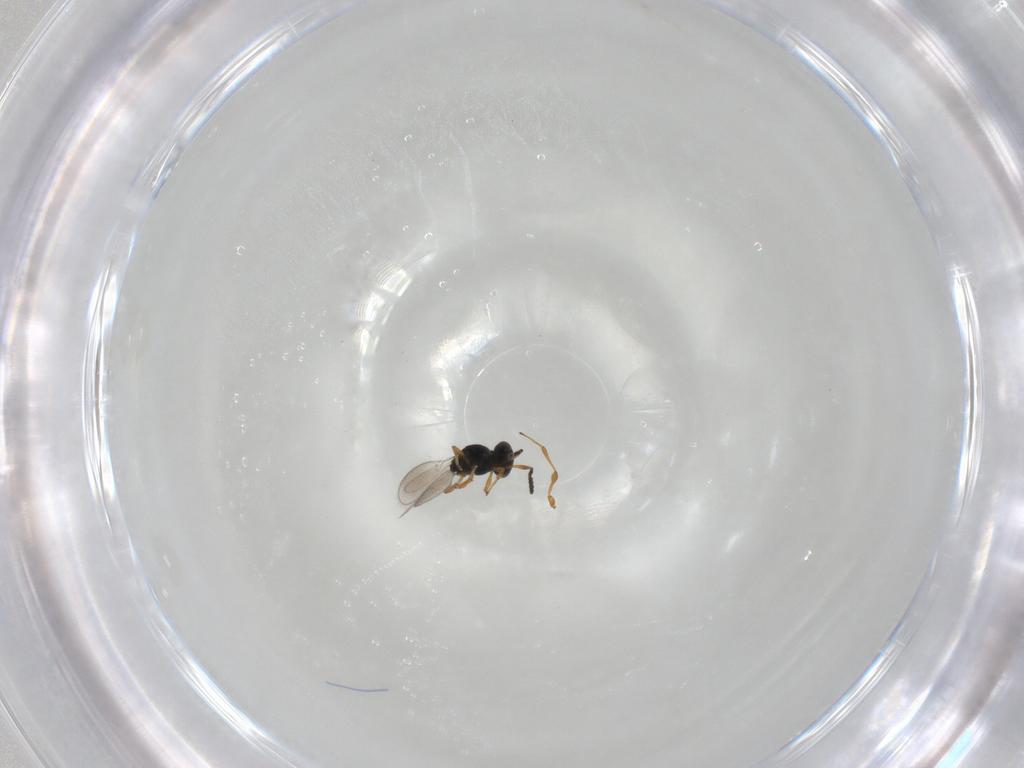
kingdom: Animalia
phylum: Arthropoda
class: Insecta
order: Hymenoptera
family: Platygastridae
